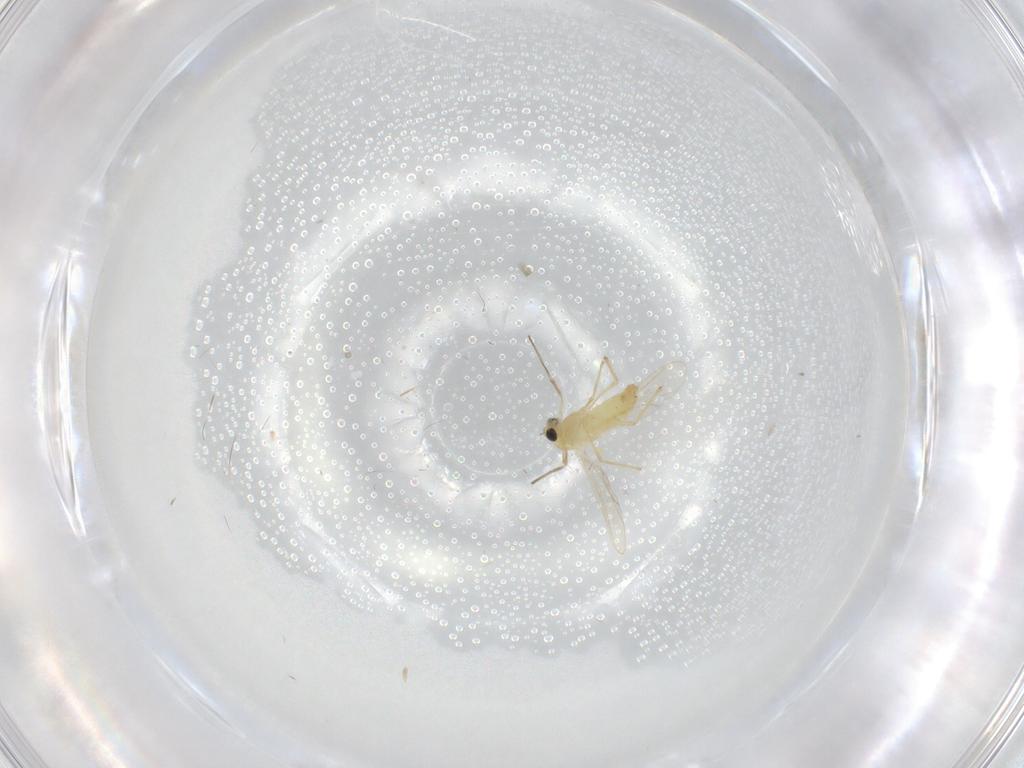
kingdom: Animalia
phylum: Arthropoda
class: Insecta
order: Diptera
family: Chironomidae
